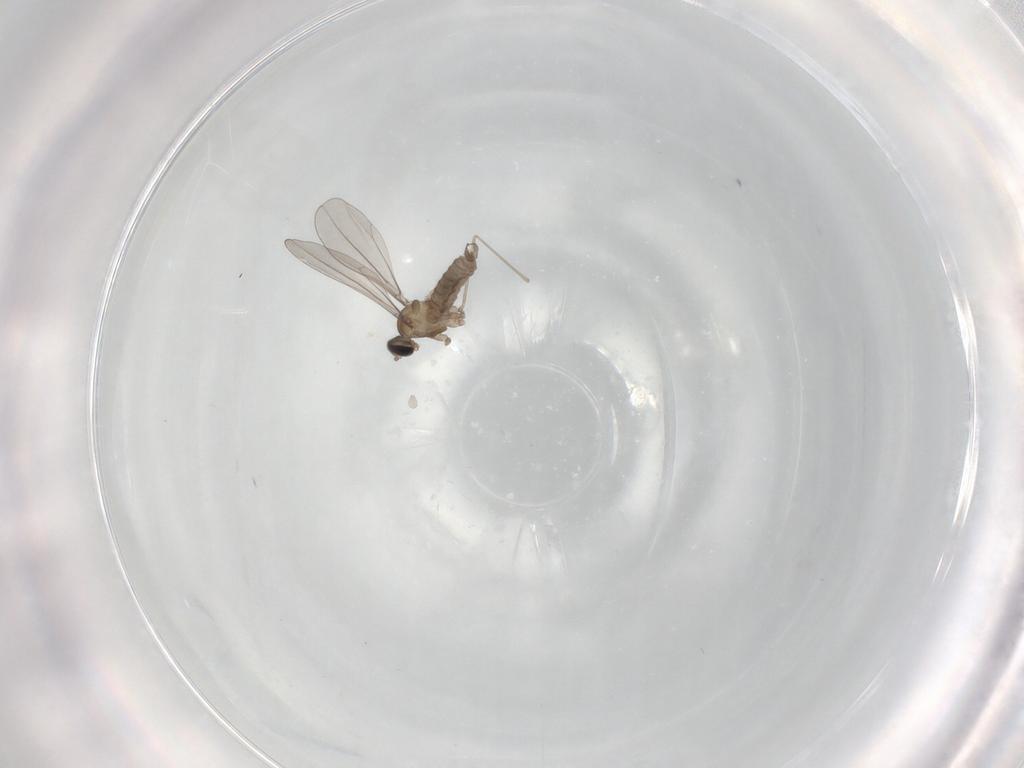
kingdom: Animalia
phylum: Arthropoda
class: Insecta
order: Diptera
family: Cecidomyiidae
